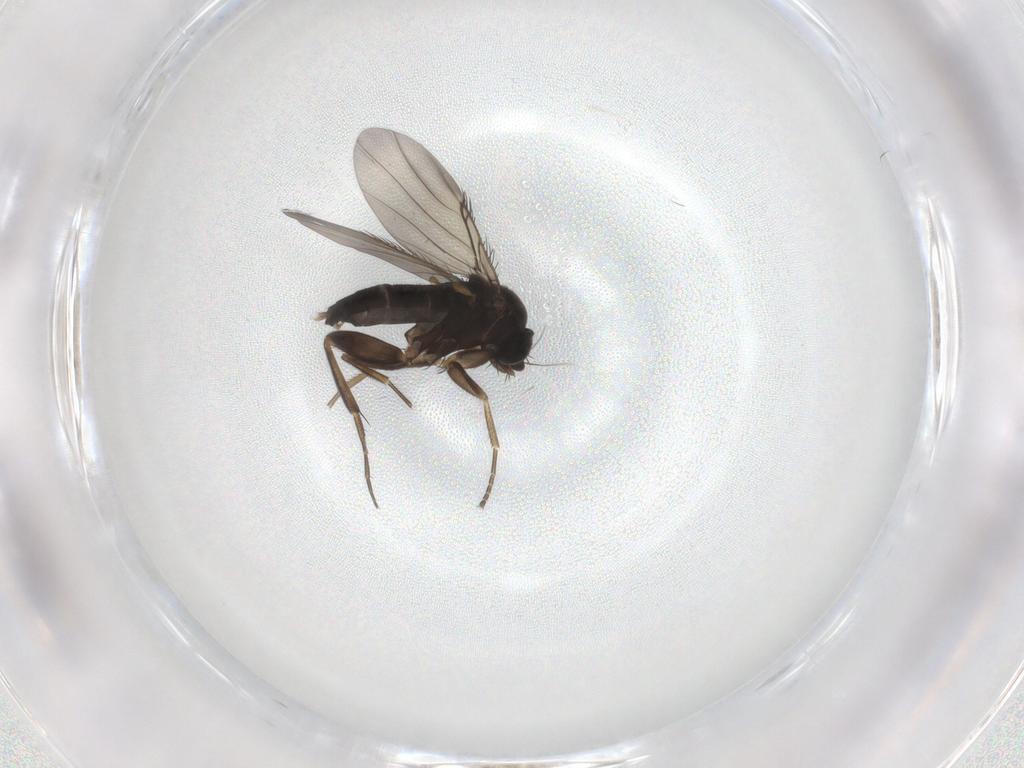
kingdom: Animalia
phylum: Arthropoda
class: Insecta
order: Diptera
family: Phoridae
